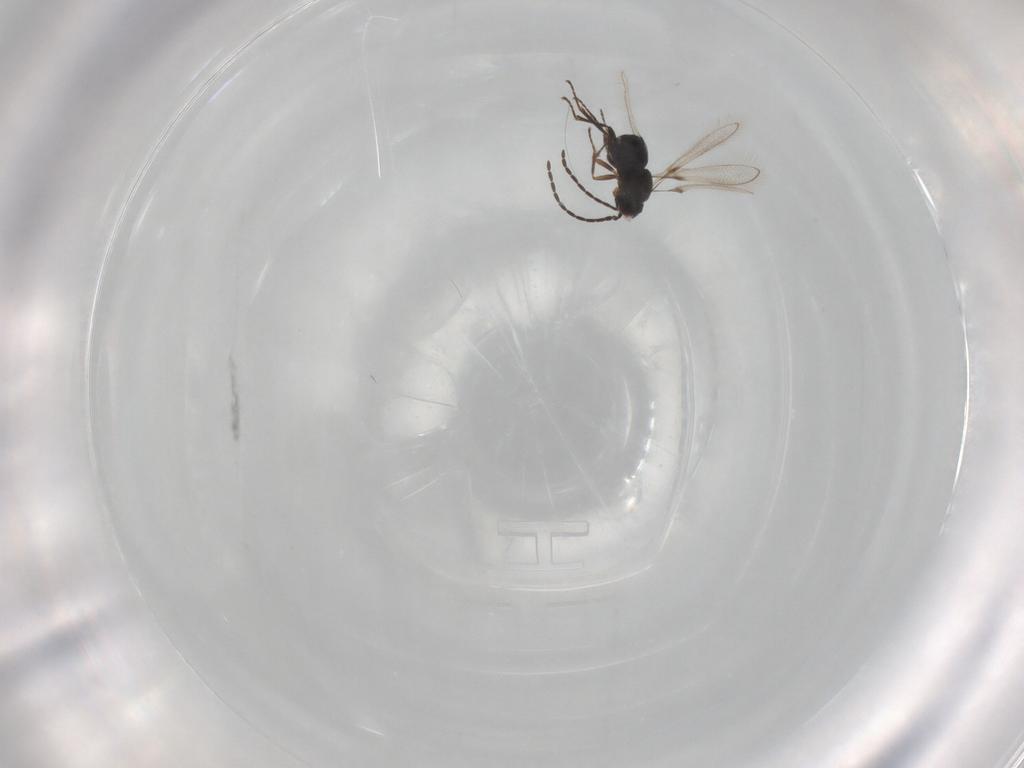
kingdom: Animalia
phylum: Arthropoda
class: Insecta
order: Hymenoptera
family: Mymaridae
